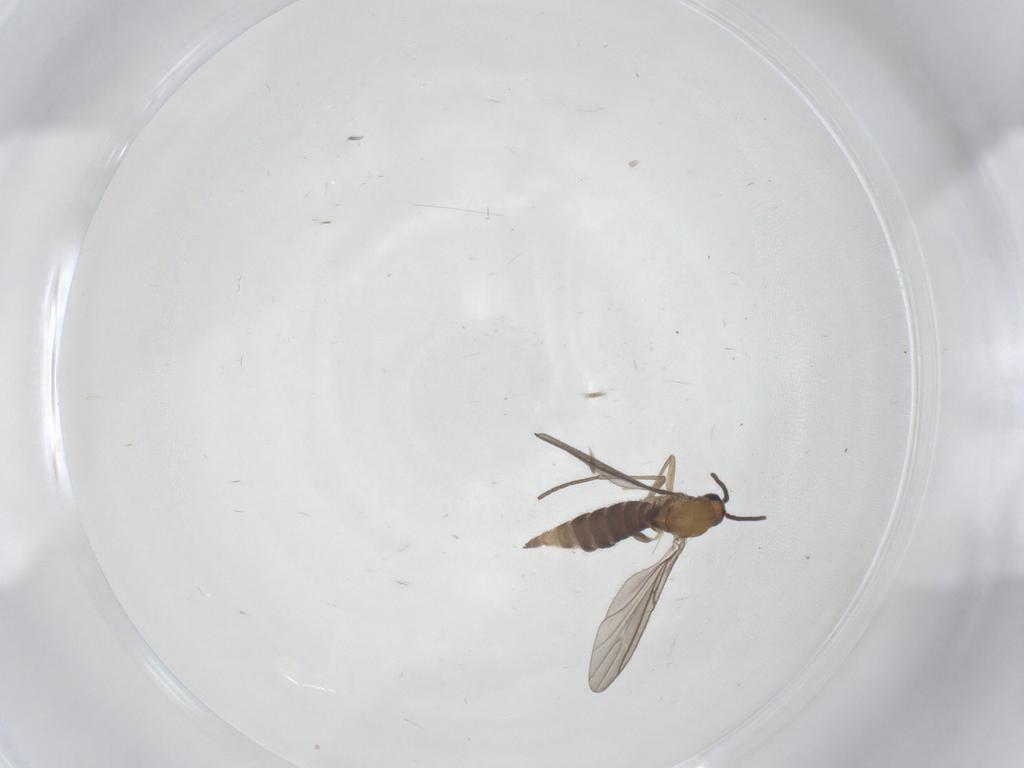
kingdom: Animalia
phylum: Arthropoda
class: Insecta
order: Diptera
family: Sciaridae
